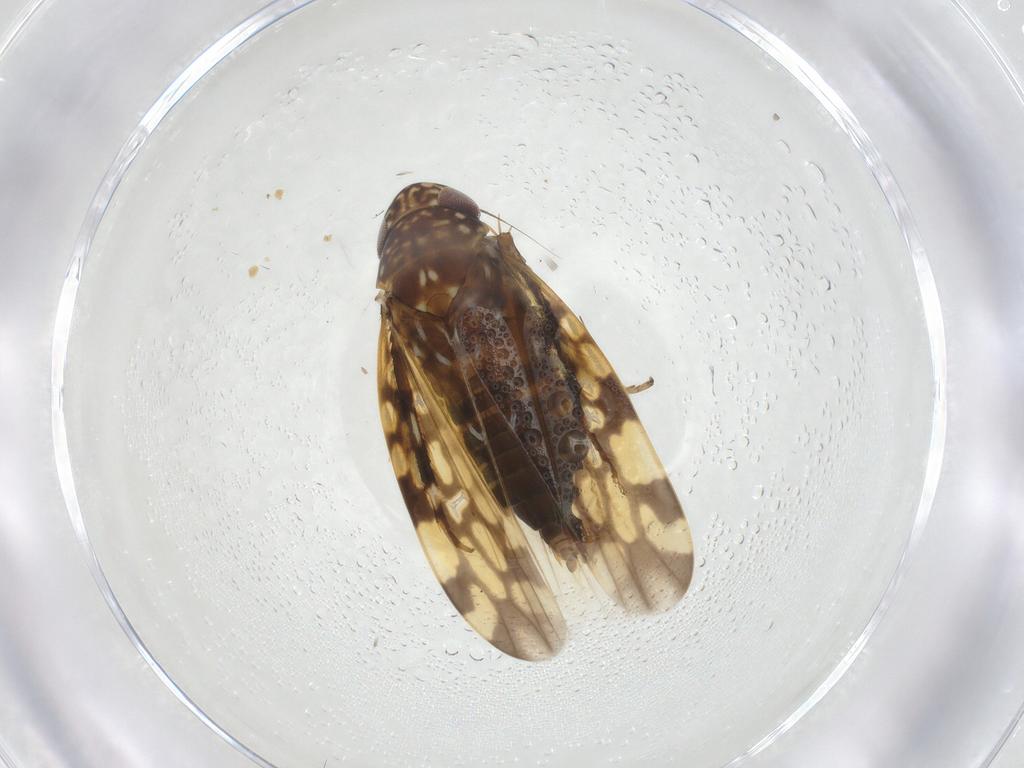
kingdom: Animalia
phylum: Arthropoda
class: Insecta
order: Hemiptera
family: Cicadellidae
